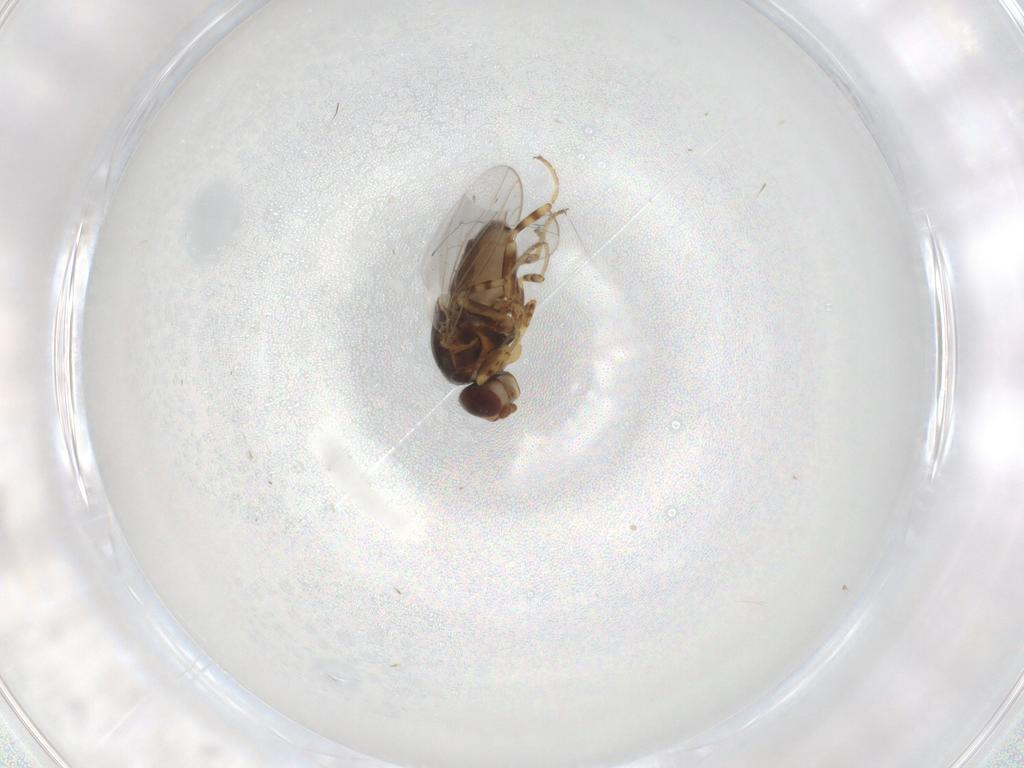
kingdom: Animalia
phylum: Arthropoda
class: Insecta
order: Diptera
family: Chloropidae
